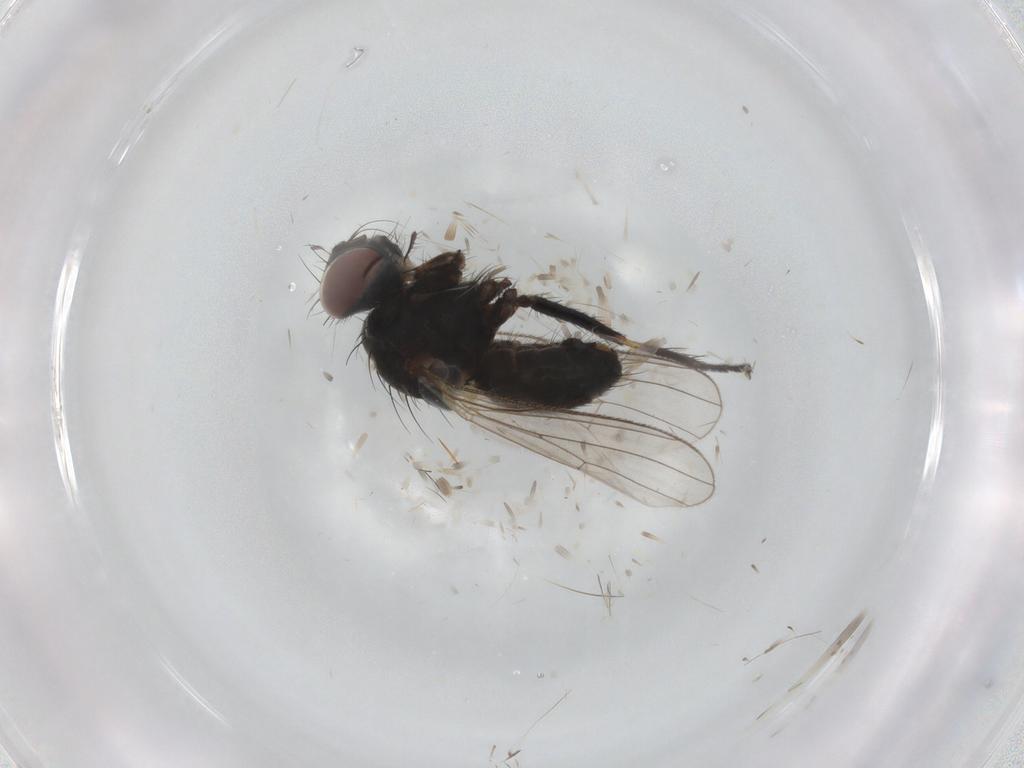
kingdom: Animalia
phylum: Arthropoda
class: Insecta
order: Diptera
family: Muscidae
